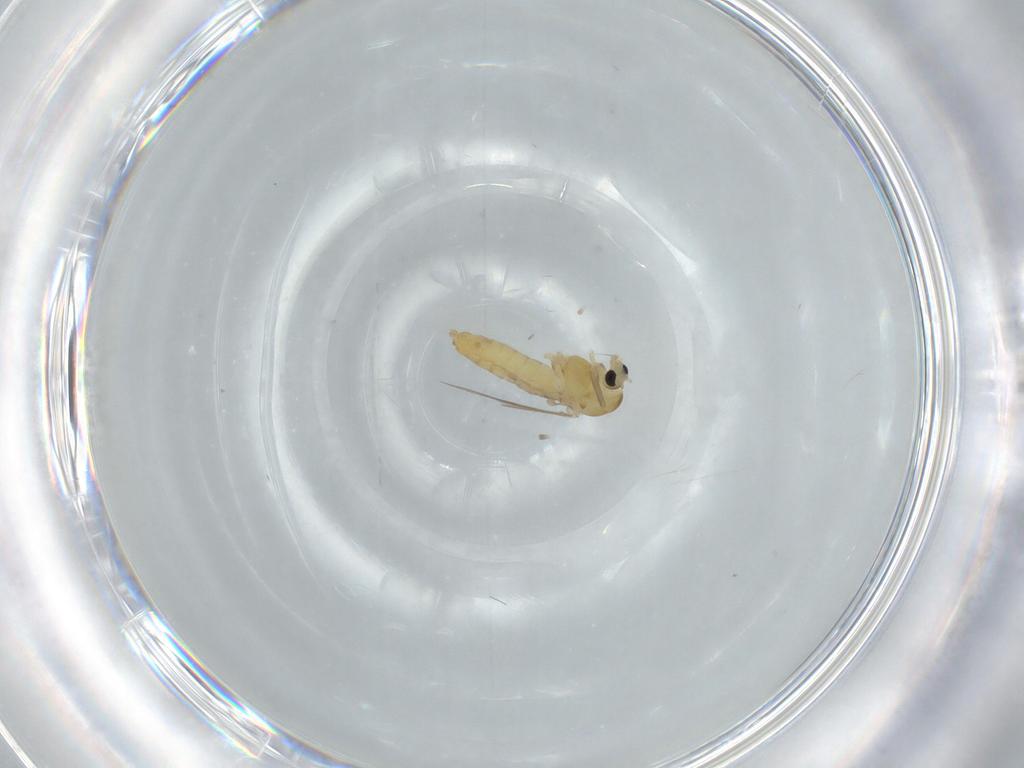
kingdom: Animalia
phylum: Arthropoda
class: Insecta
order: Diptera
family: Chironomidae
